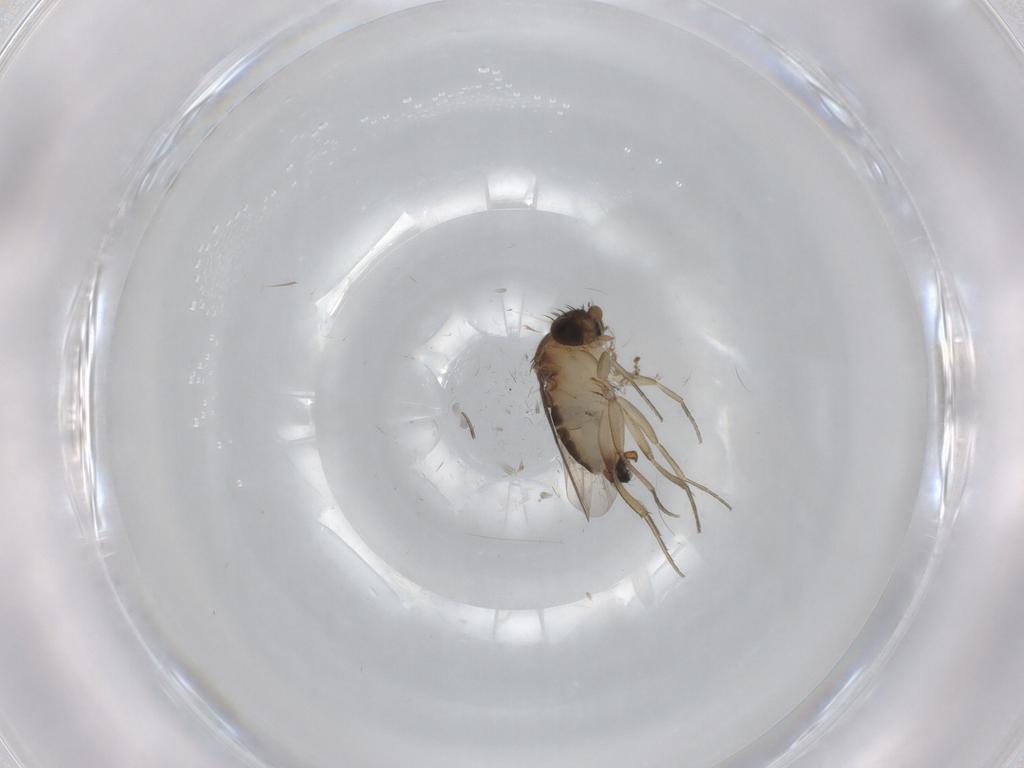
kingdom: Animalia
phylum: Arthropoda
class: Insecta
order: Diptera
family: Phoridae
